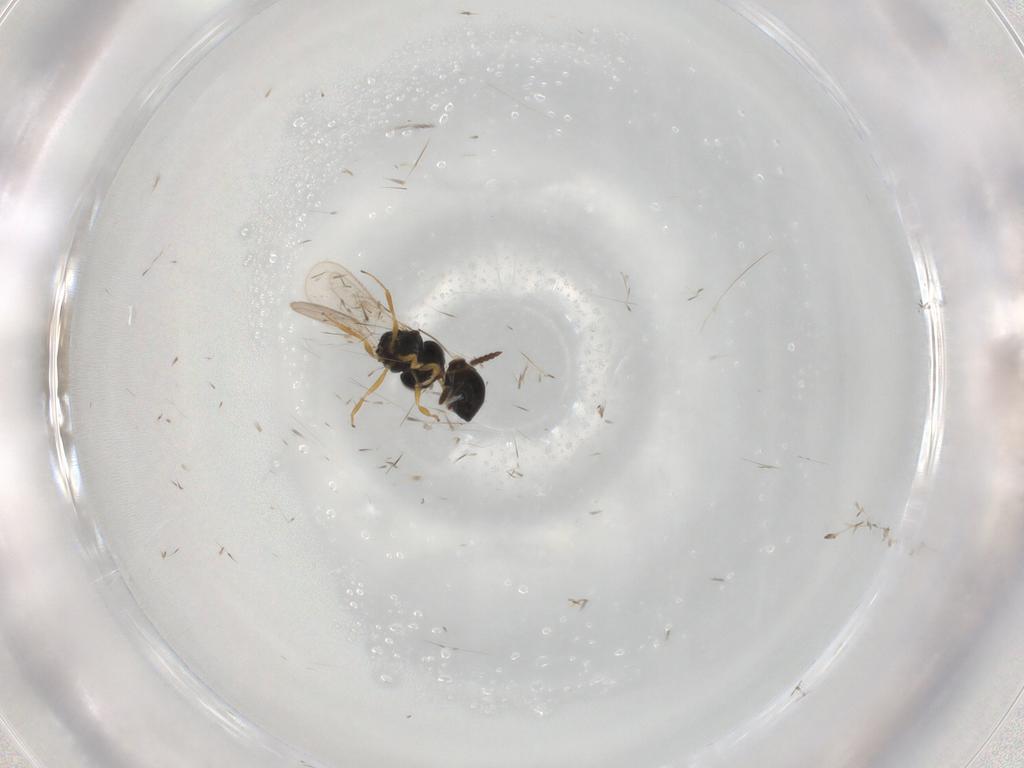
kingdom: Animalia
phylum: Arthropoda
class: Insecta
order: Hymenoptera
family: Scelionidae
